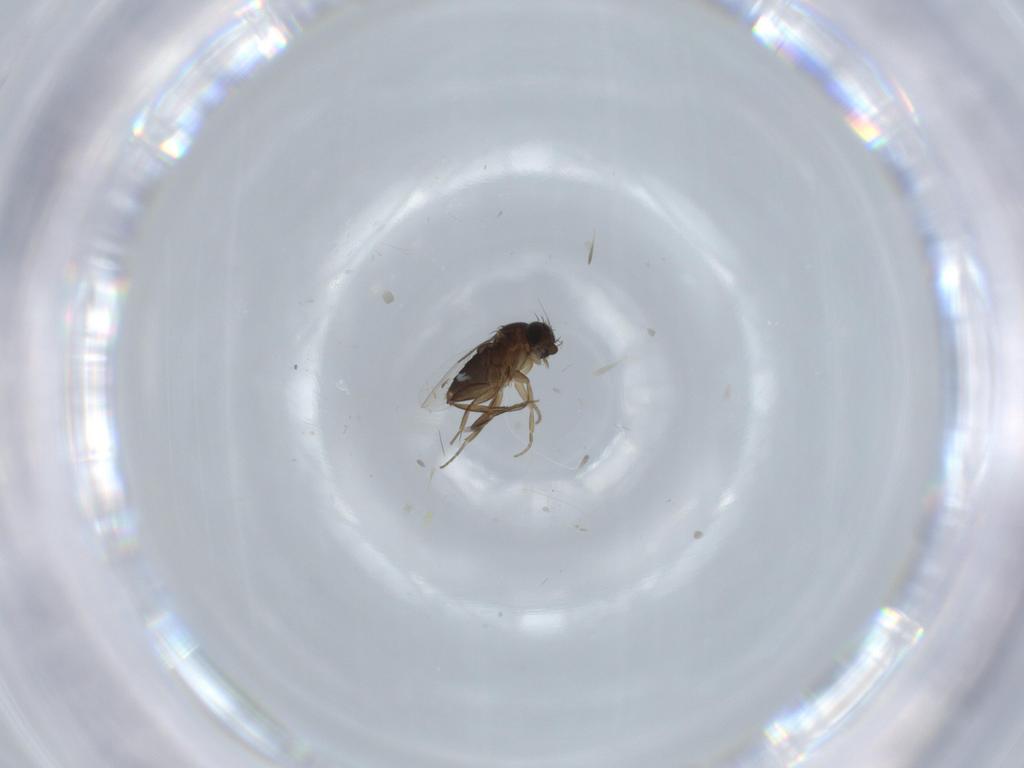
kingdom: Animalia
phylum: Arthropoda
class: Insecta
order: Diptera
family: Phoridae
